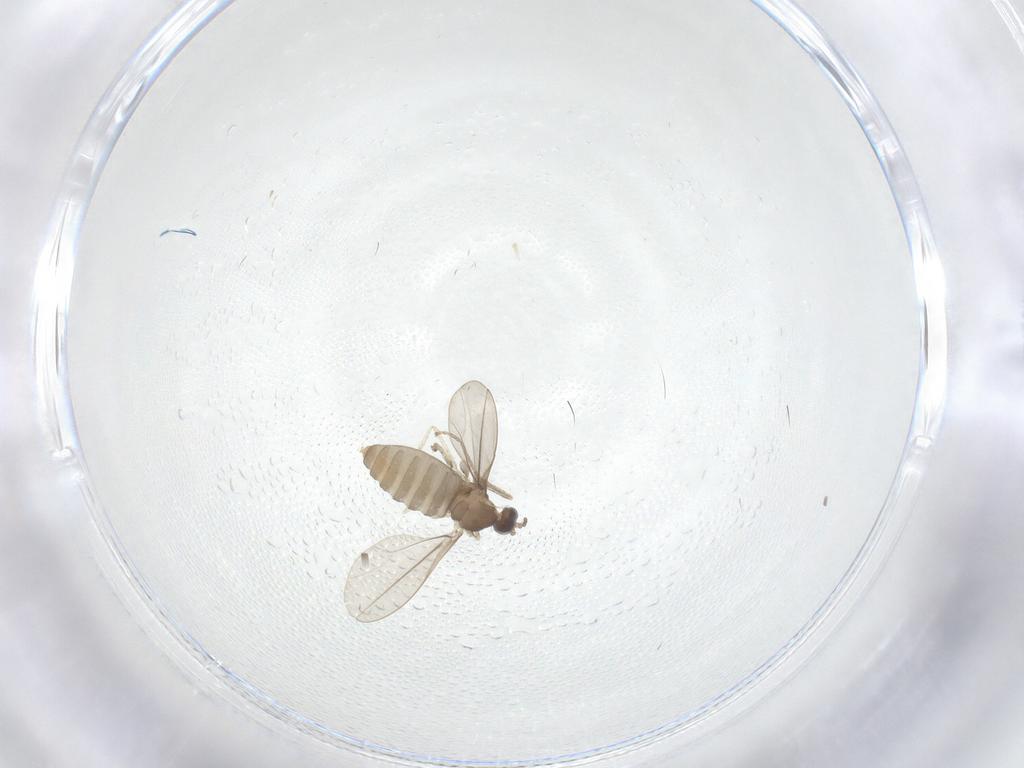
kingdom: Animalia
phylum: Arthropoda
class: Insecta
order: Diptera
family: Cecidomyiidae
